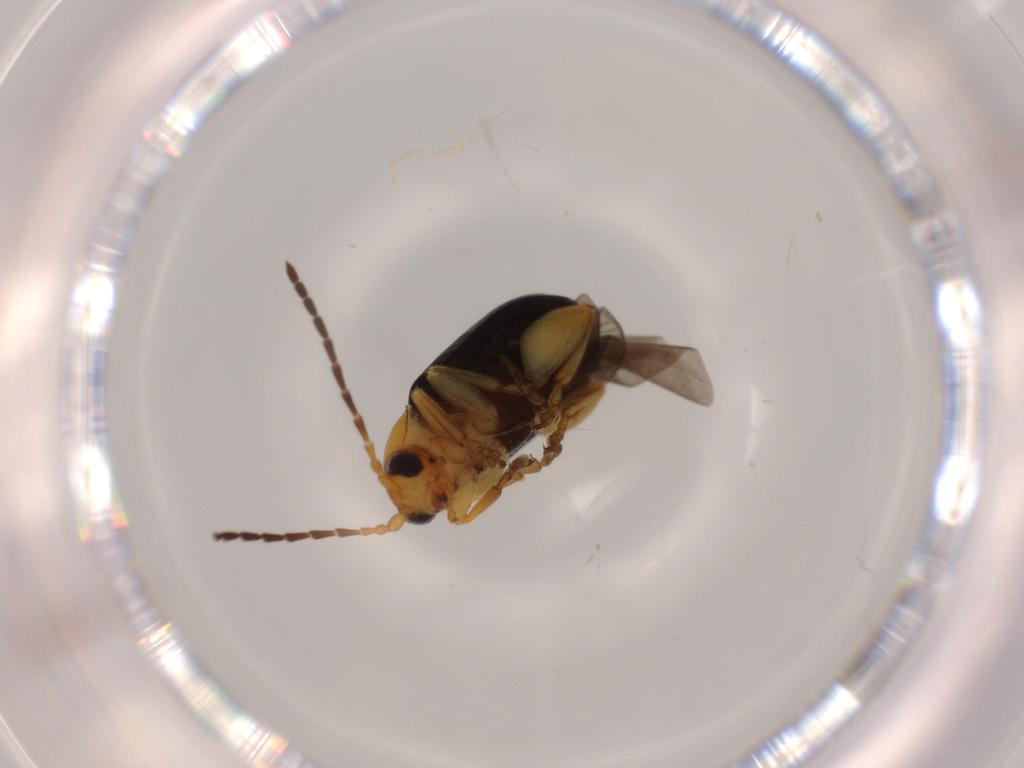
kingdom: Animalia
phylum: Arthropoda
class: Insecta
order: Coleoptera
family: Chrysomelidae
